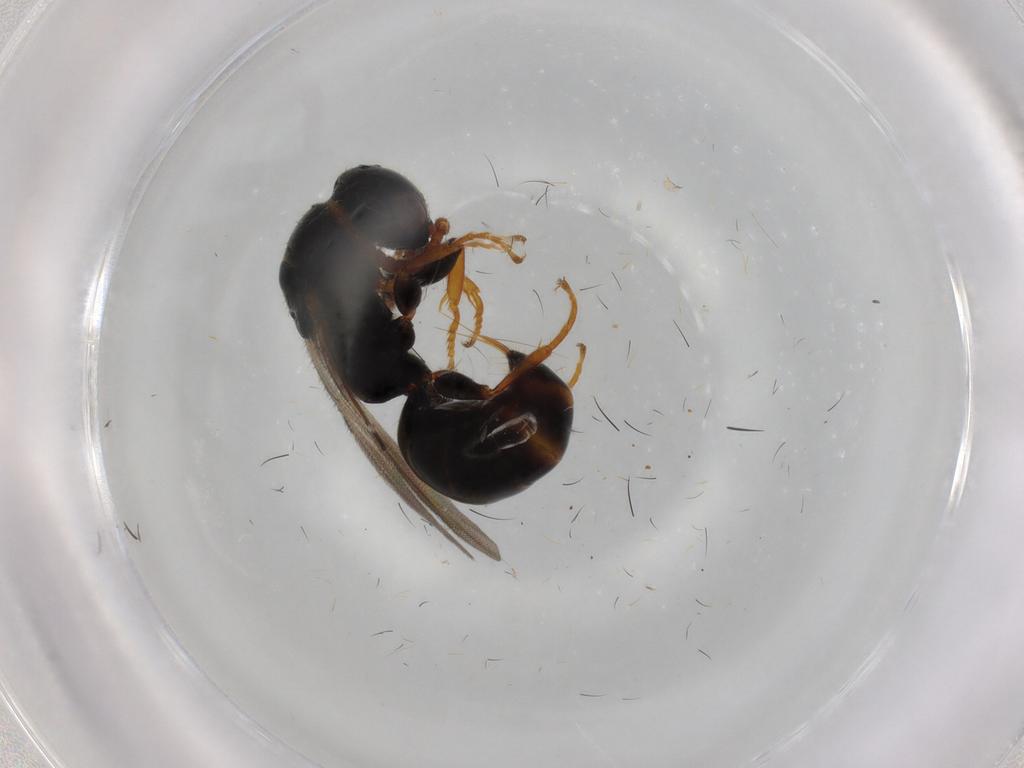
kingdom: Animalia
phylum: Arthropoda
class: Insecta
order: Hymenoptera
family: Bethylidae
